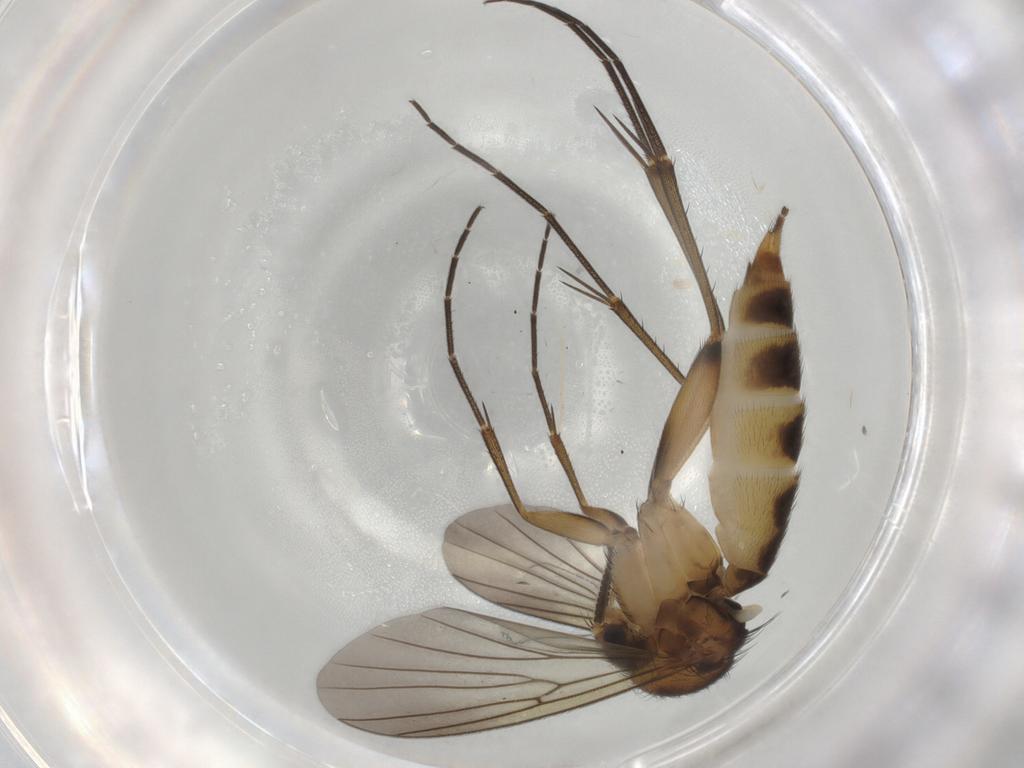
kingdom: Animalia
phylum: Arthropoda
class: Insecta
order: Diptera
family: Mycetophilidae
